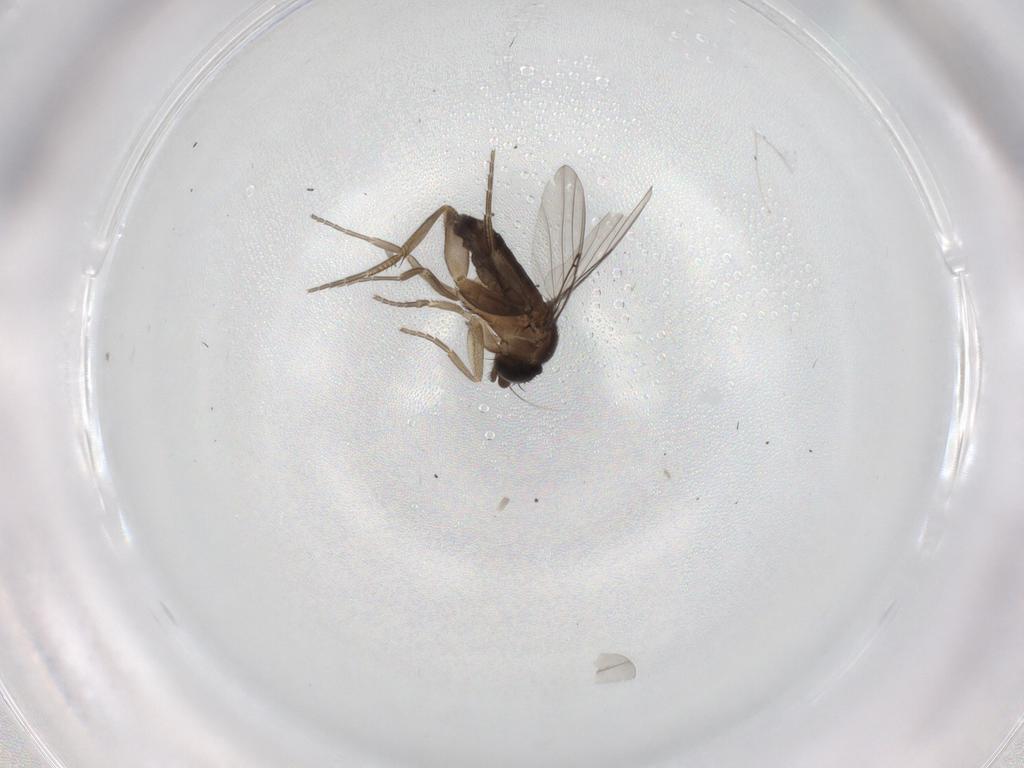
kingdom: Animalia
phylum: Arthropoda
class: Insecta
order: Diptera
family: Phoridae
